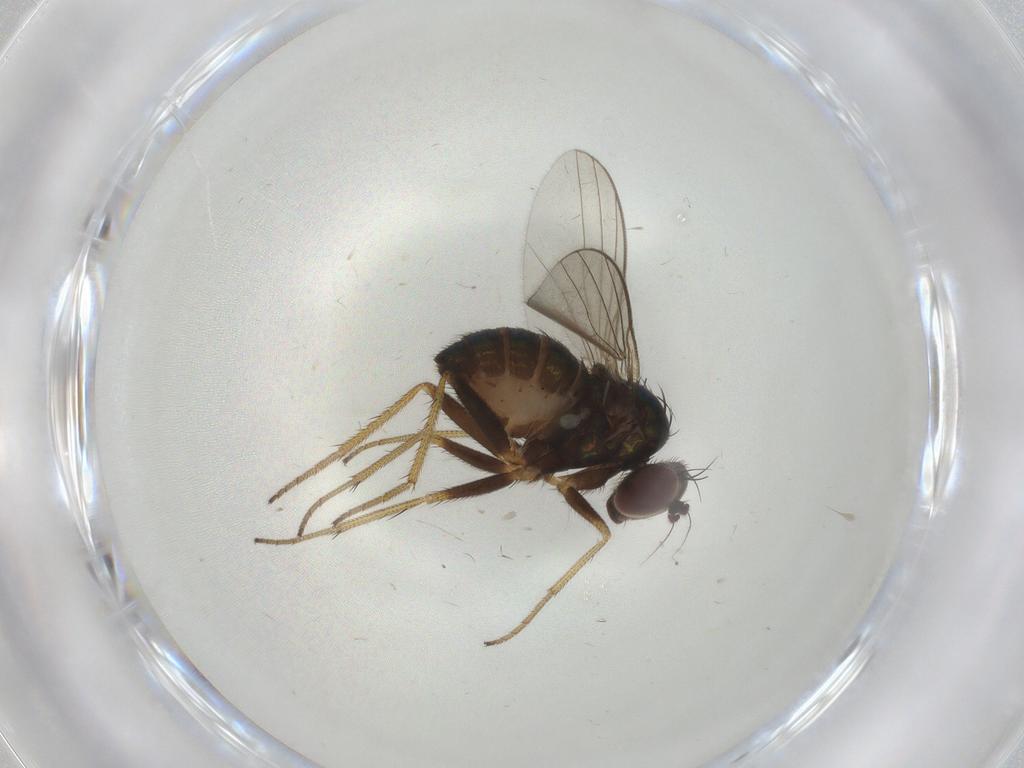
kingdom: Animalia
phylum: Arthropoda
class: Insecta
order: Diptera
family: Dolichopodidae
